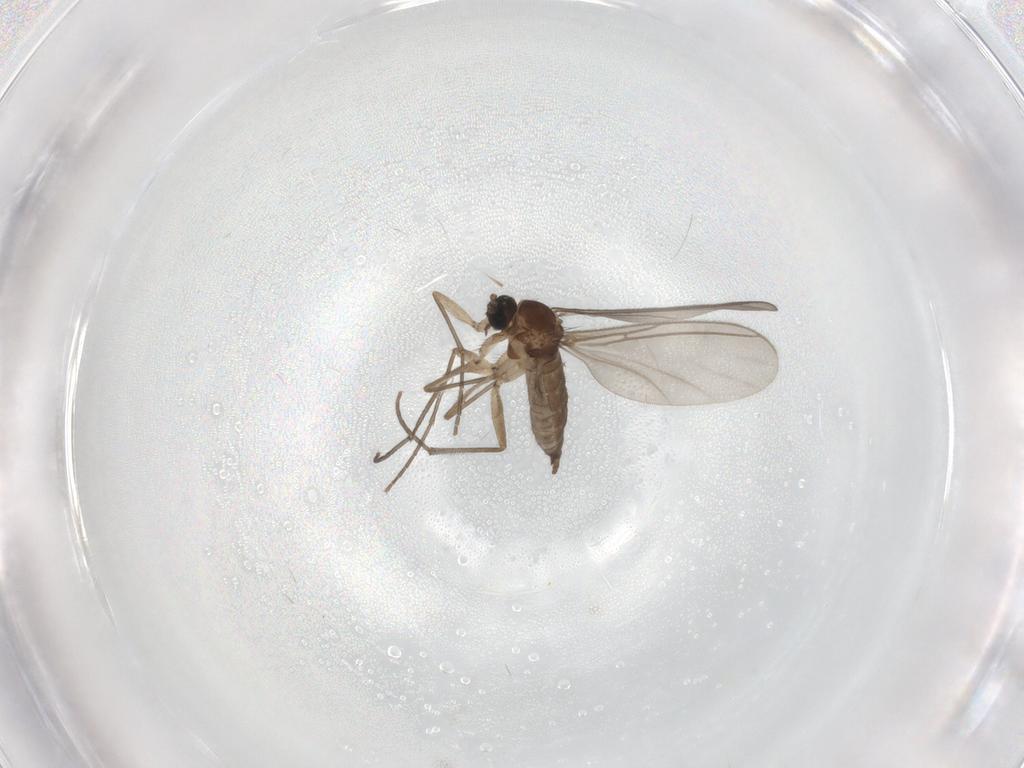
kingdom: Animalia
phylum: Arthropoda
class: Insecta
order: Diptera
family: Sciaridae
